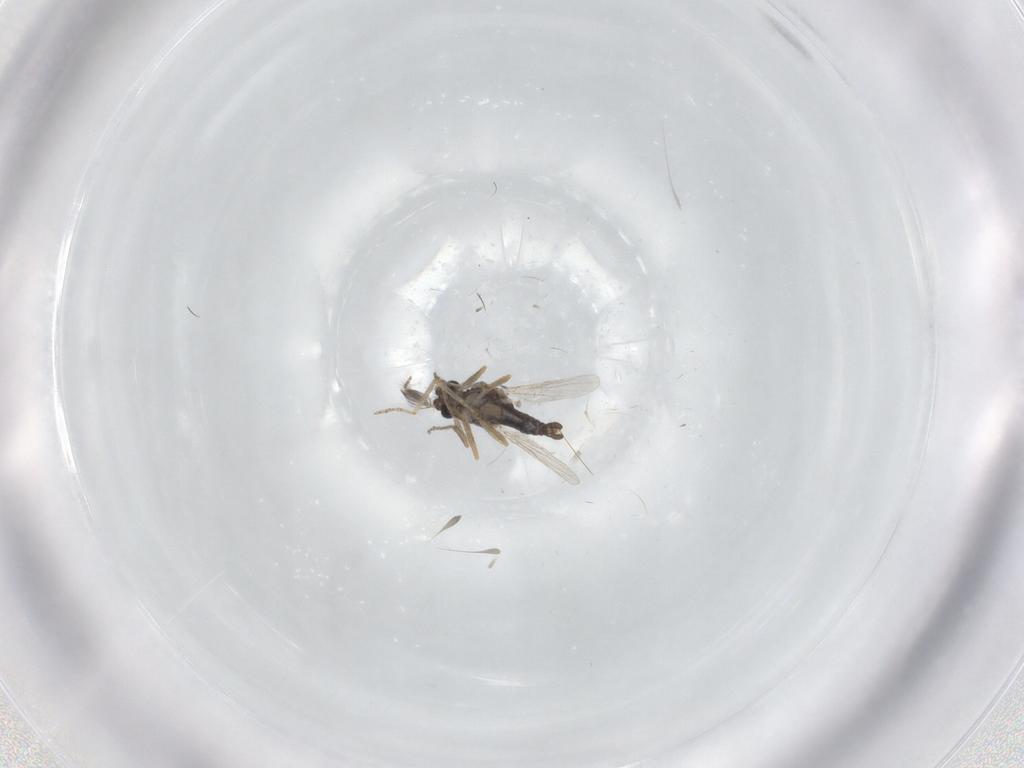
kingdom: Animalia
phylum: Arthropoda
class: Insecta
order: Diptera
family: Ceratopogonidae
